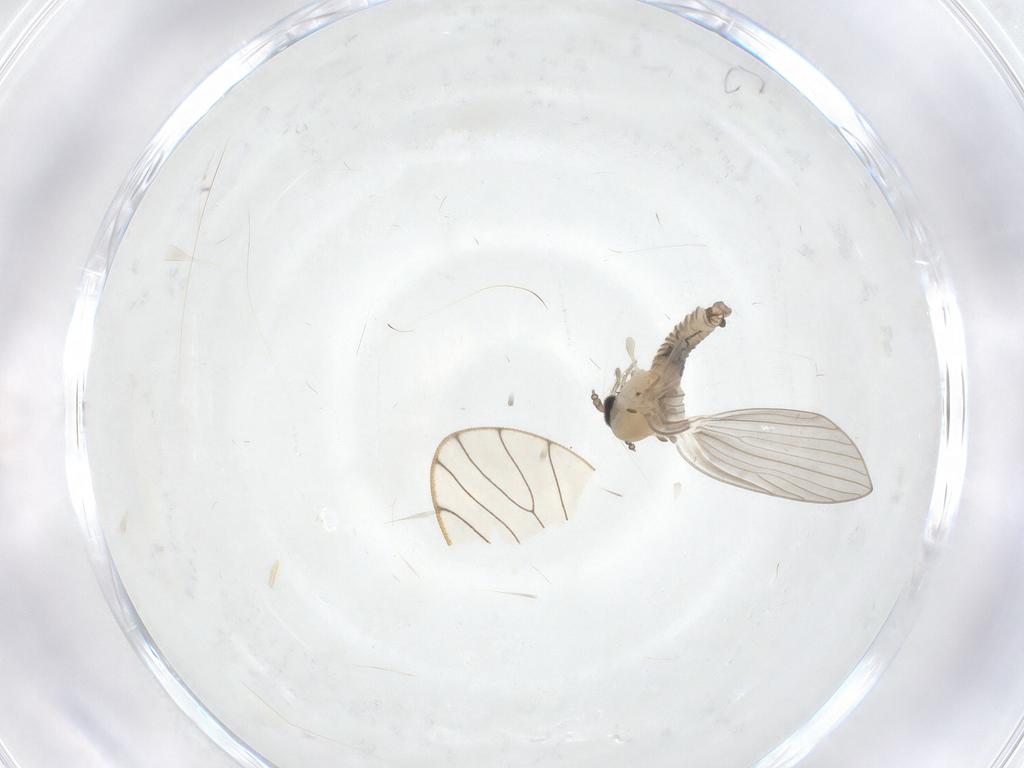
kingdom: Animalia
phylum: Arthropoda
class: Insecta
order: Diptera
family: Psychodidae
